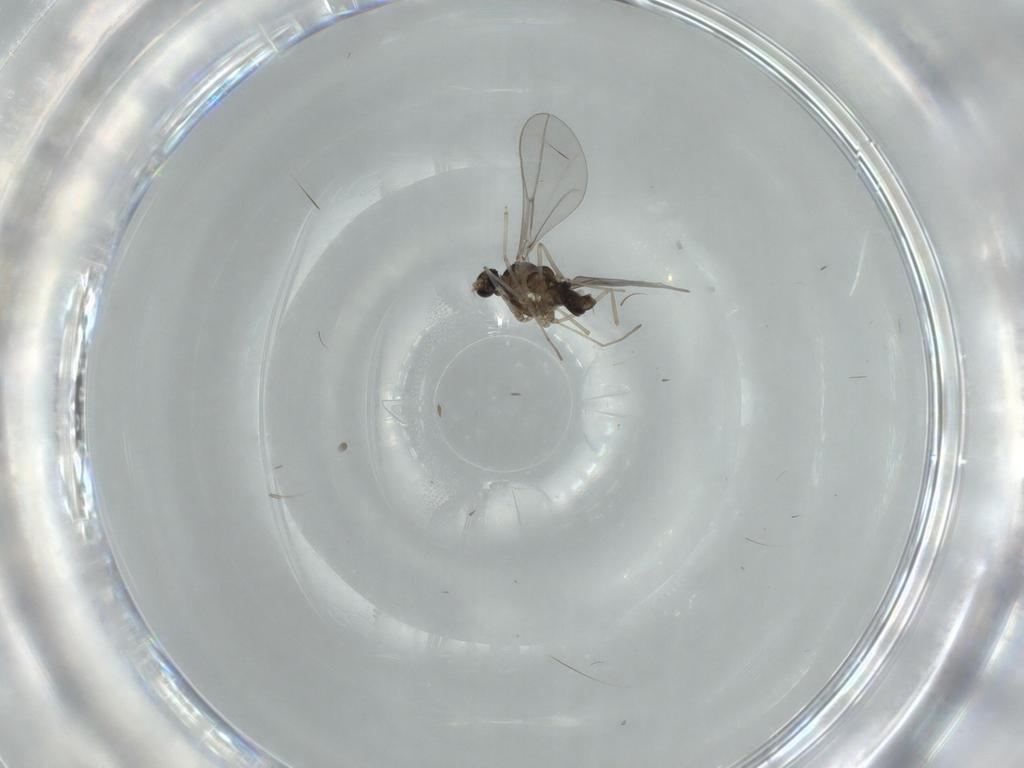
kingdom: Animalia
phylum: Arthropoda
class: Insecta
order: Diptera
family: Cecidomyiidae
